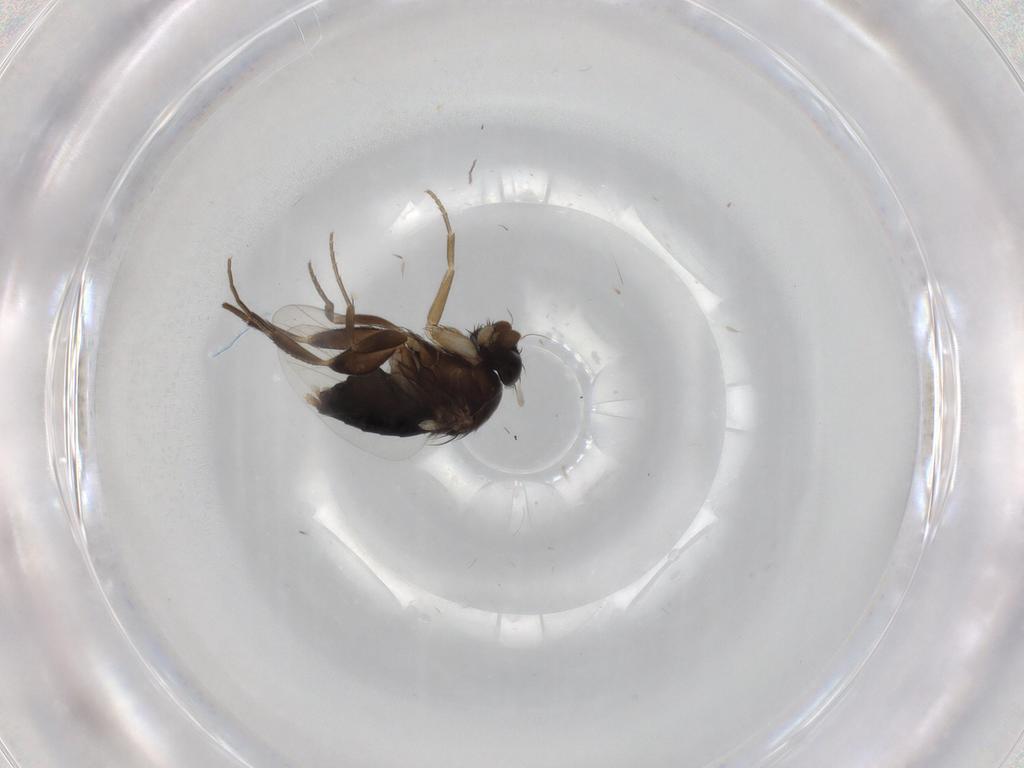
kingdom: Animalia
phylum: Arthropoda
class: Insecta
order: Diptera
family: Phoridae
